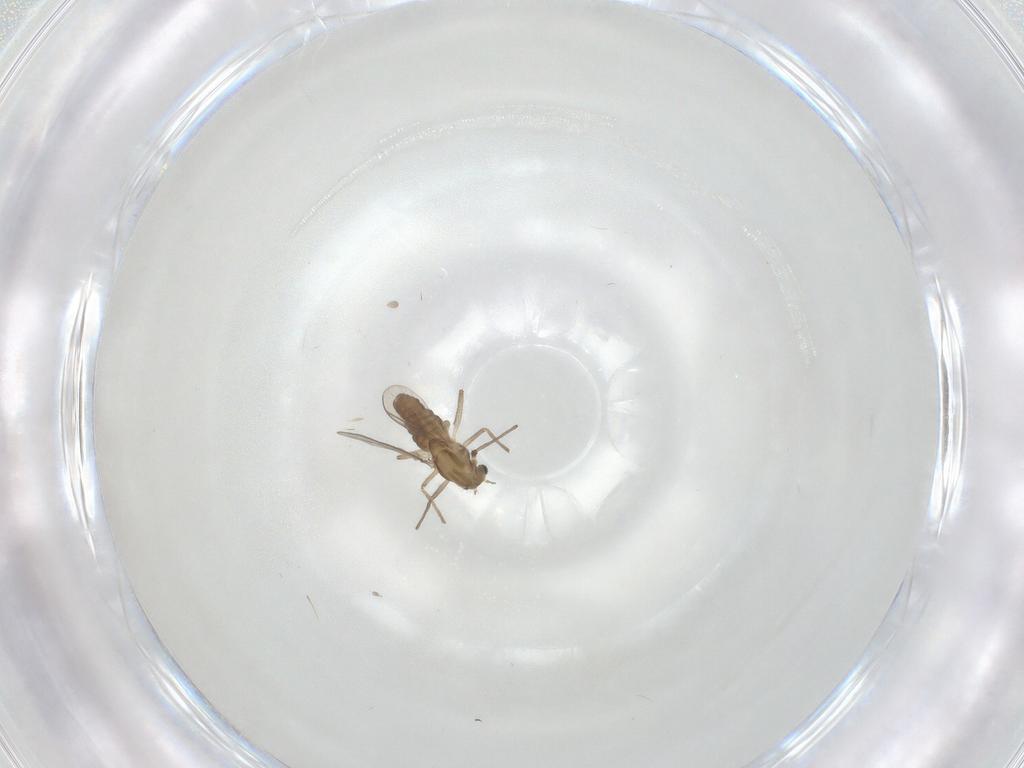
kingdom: Animalia
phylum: Arthropoda
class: Insecta
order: Diptera
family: Chironomidae
